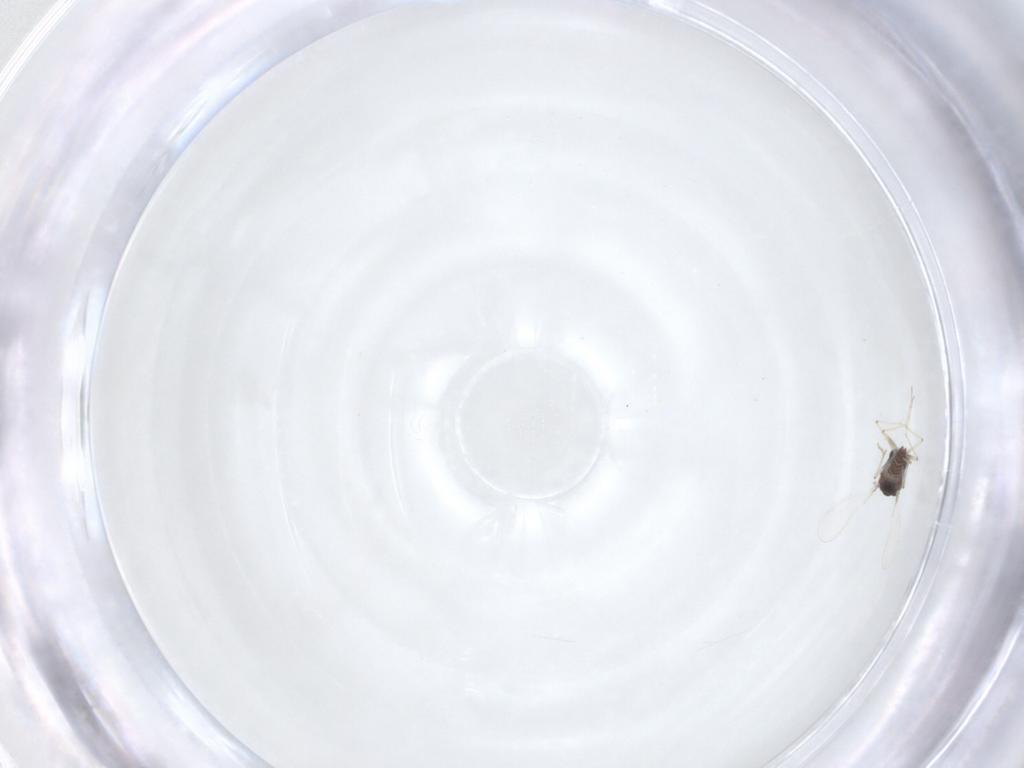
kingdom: Animalia
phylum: Arthropoda
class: Insecta
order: Diptera
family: Chironomidae
